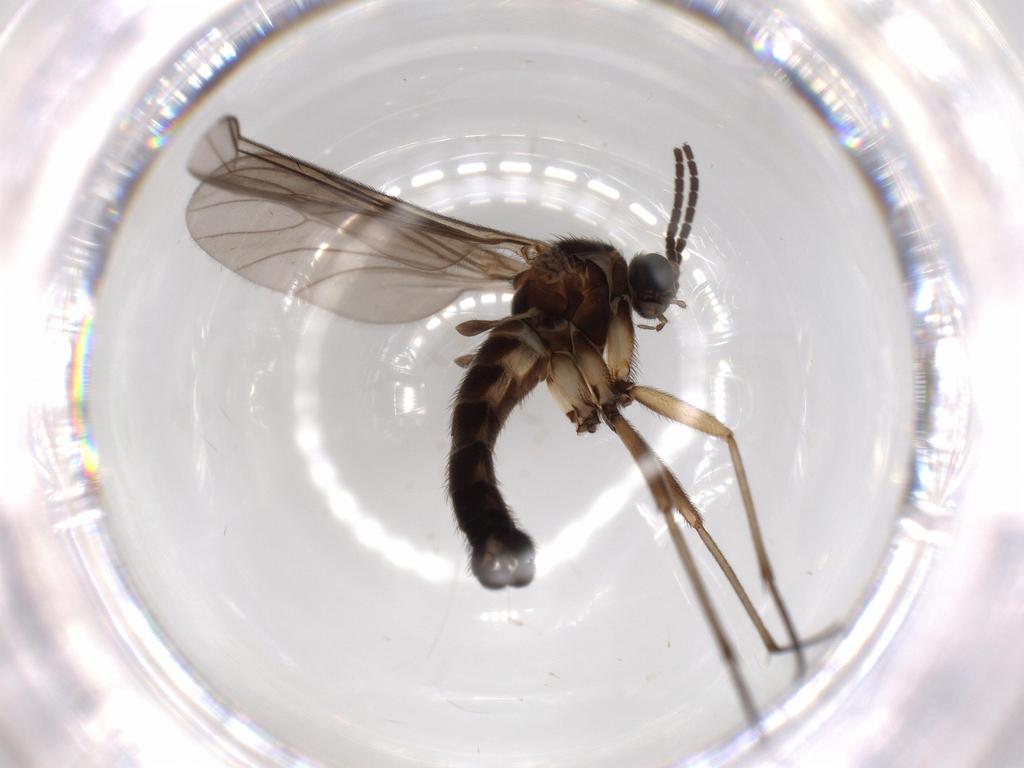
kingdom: Animalia
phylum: Arthropoda
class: Insecta
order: Diptera
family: Sciaridae
